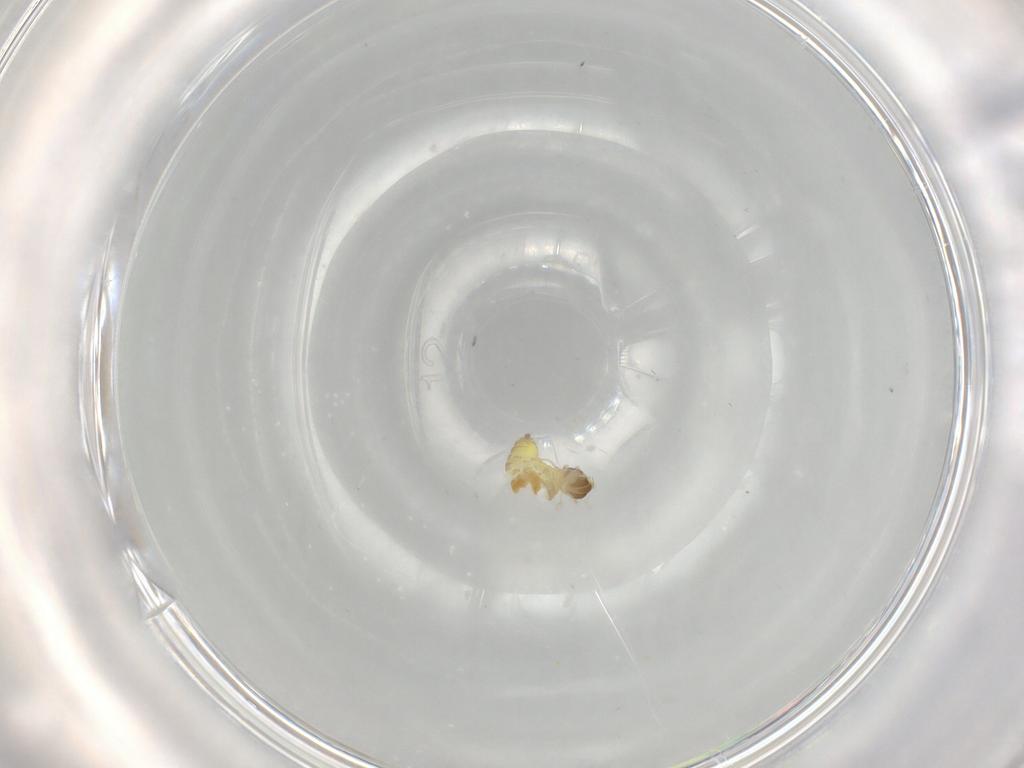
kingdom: Animalia
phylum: Arthropoda
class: Insecta
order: Diptera
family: Cecidomyiidae
